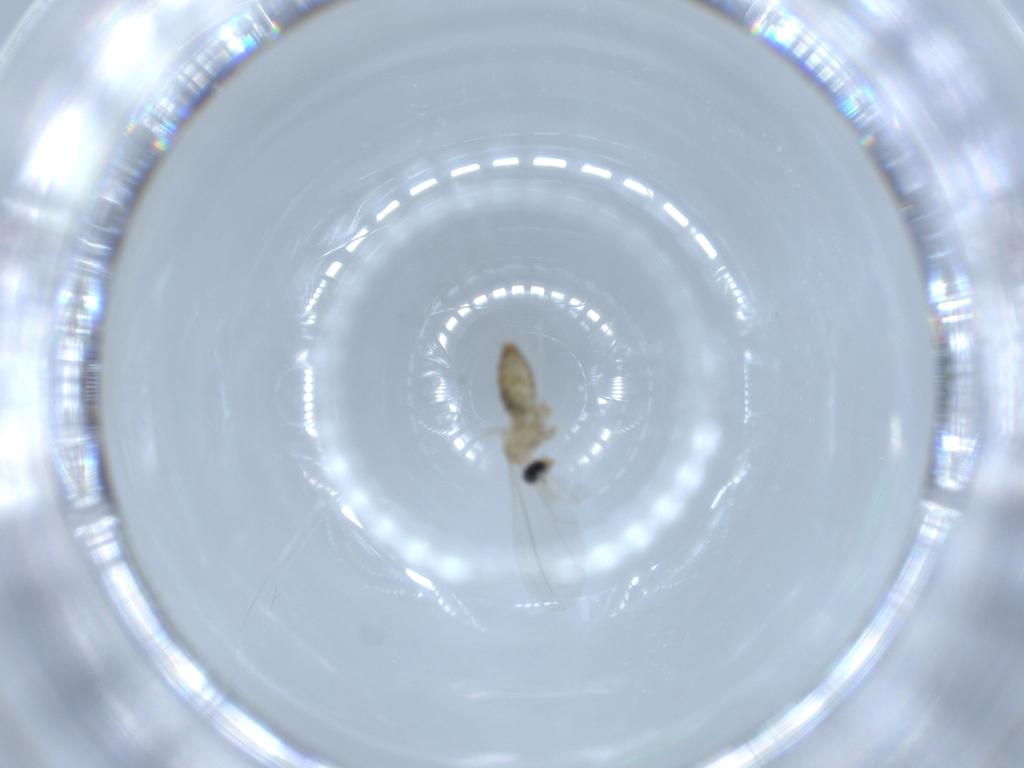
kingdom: Animalia
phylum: Arthropoda
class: Insecta
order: Diptera
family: Cecidomyiidae
